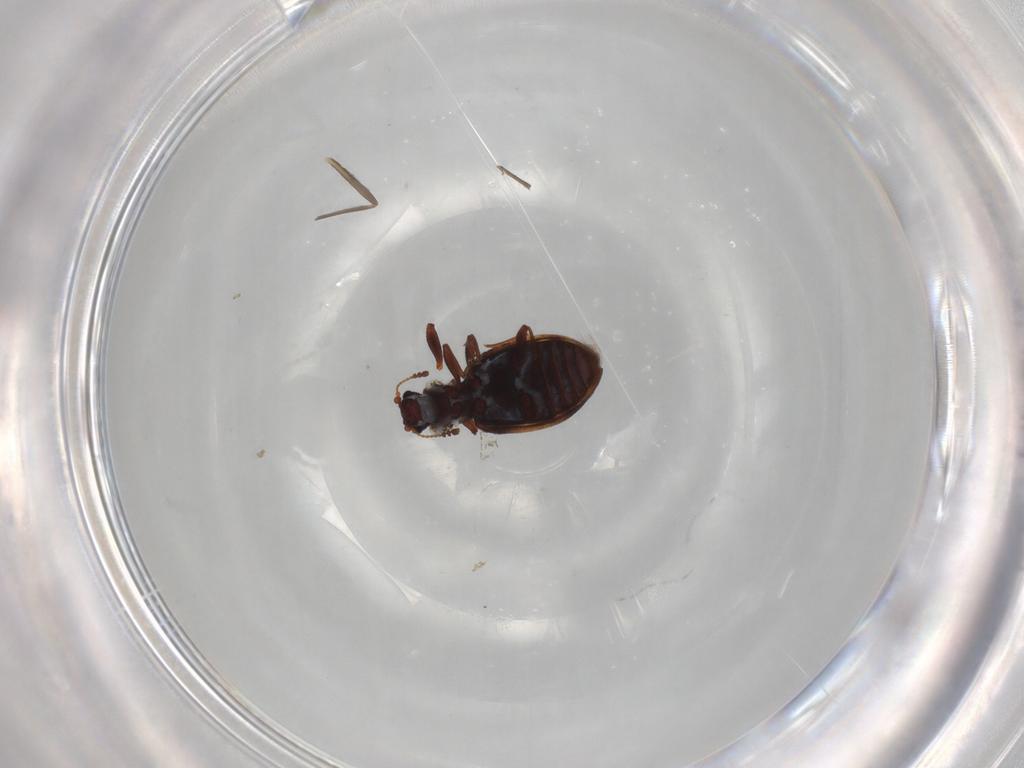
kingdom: Animalia
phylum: Arthropoda
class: Insecta
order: Coleoptera
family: Latridiidae
